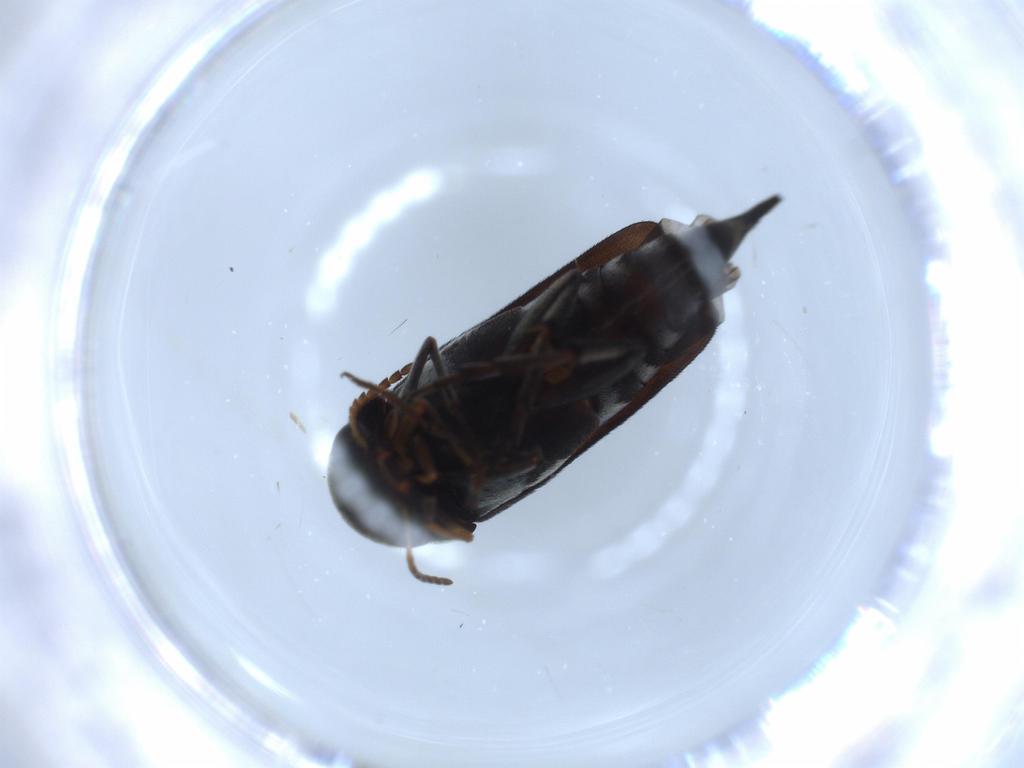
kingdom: Animalia
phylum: Arthropoda
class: Insecta
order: Coleoptera
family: Mordellidae
